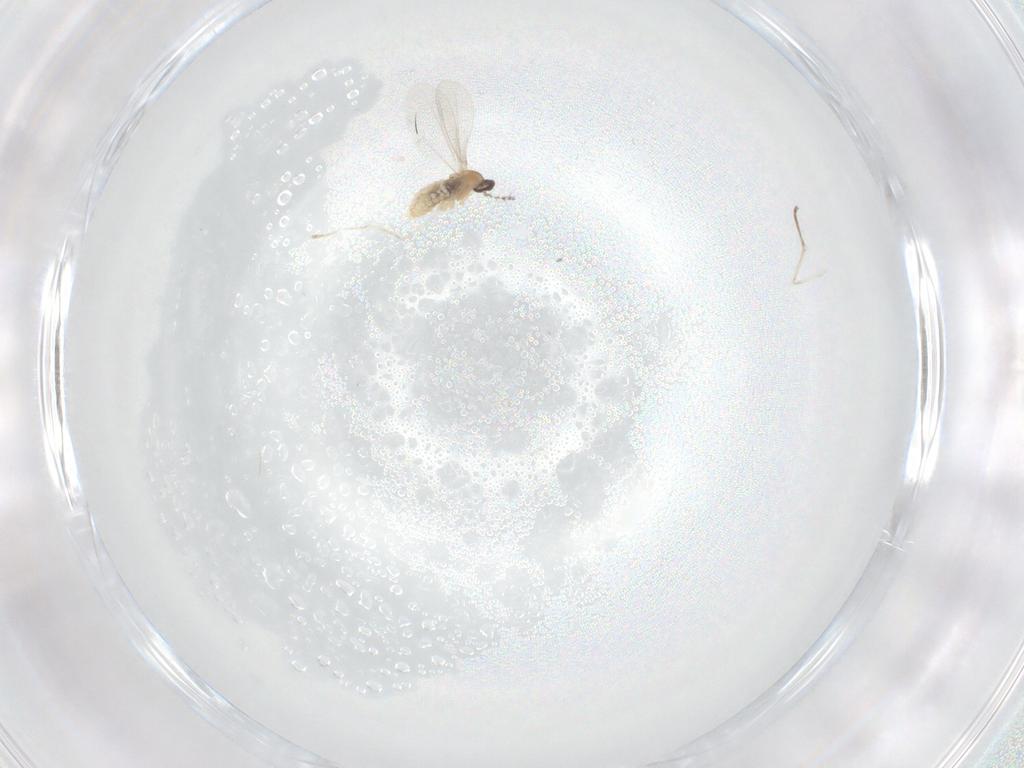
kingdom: Animalia
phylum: Arthropoda
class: Insecta
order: Diptera
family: Cecidomyiidae
